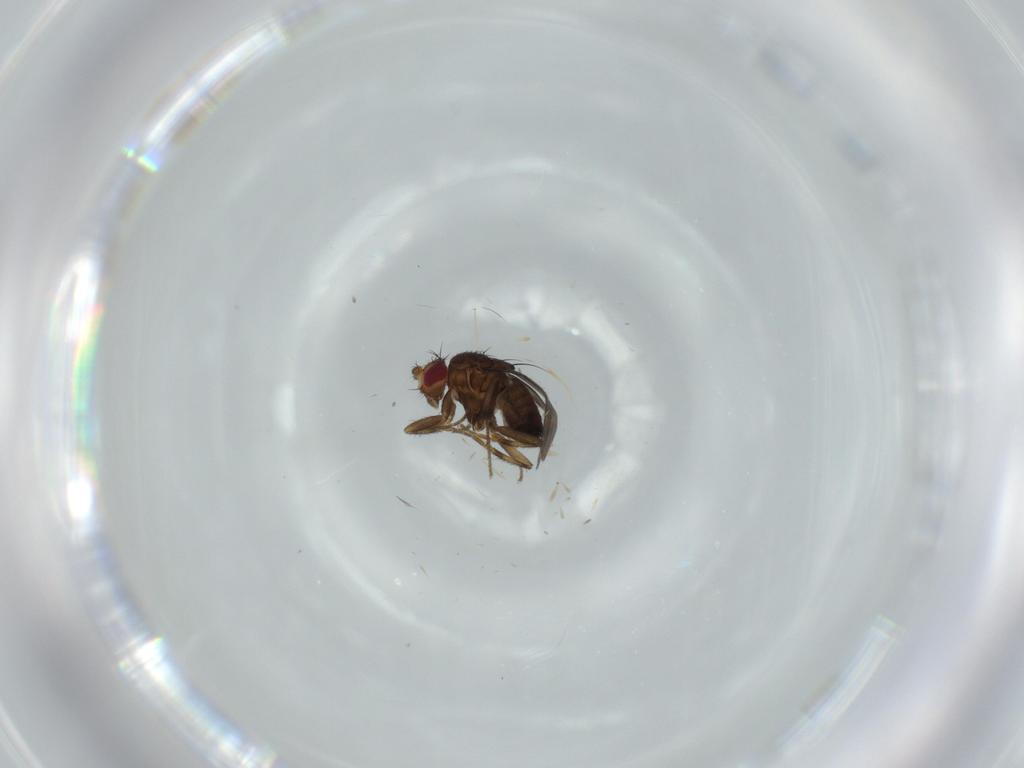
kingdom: Animalia
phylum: Arthropoda
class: Insecta
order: Diptera
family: Sphaeroceridae
